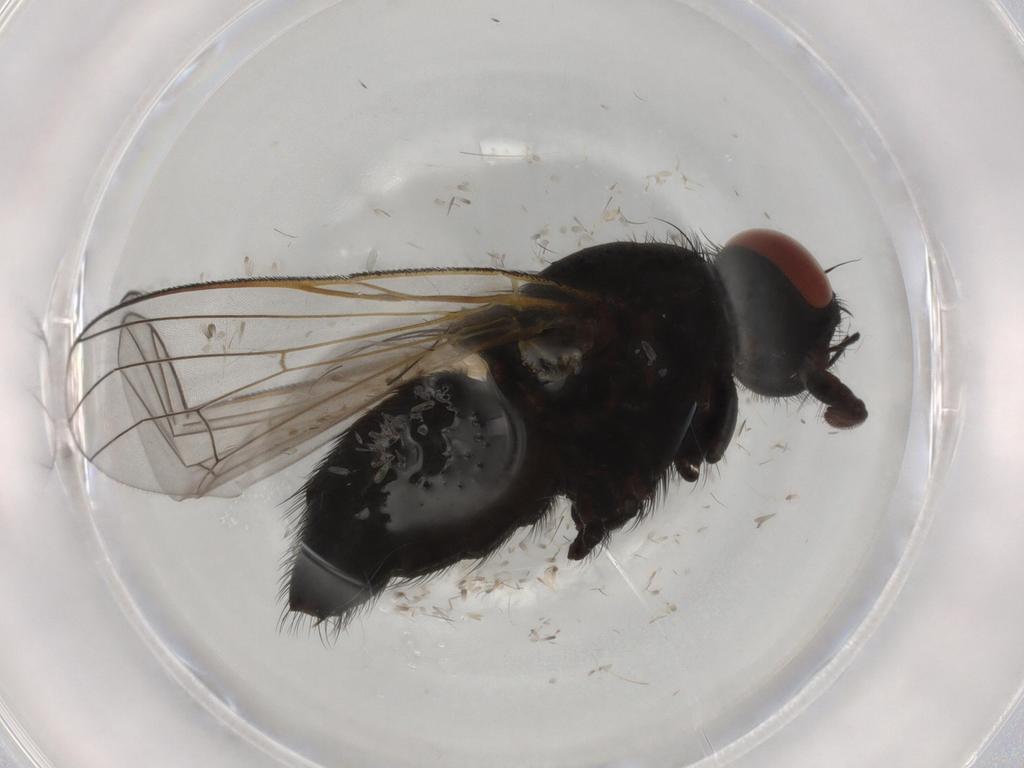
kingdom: Animalia
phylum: Arthropoda
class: Insecta
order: Diptera
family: Muscidae
